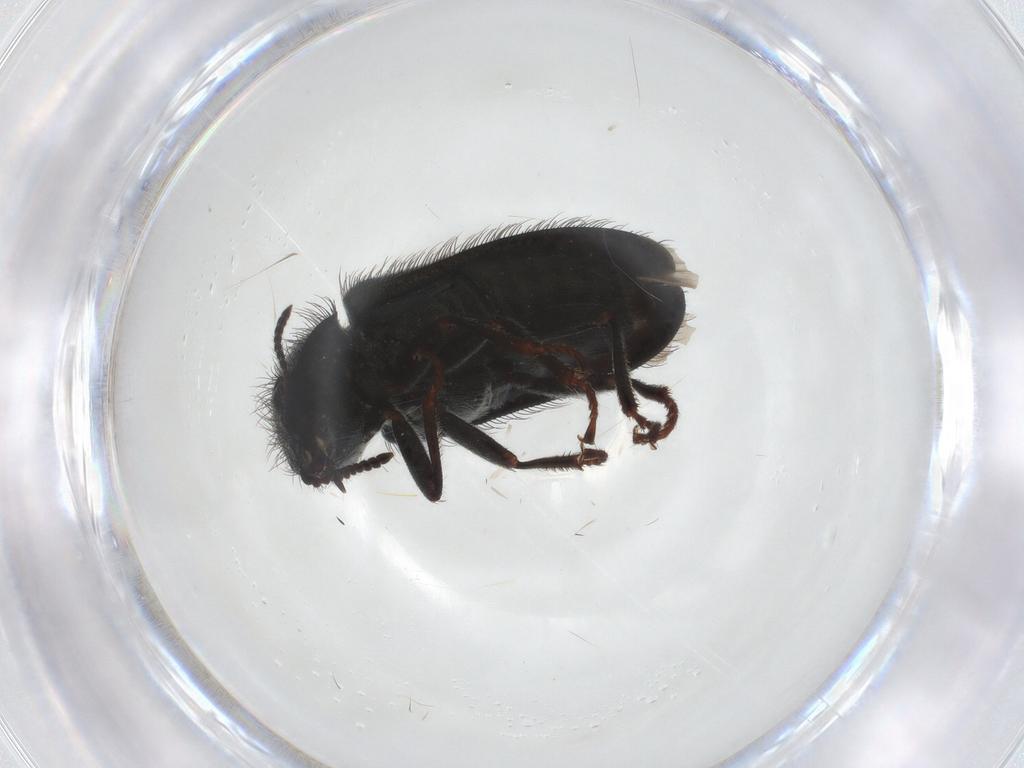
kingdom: Animalia
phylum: Arthropoda
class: Insecta
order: Coleoptera
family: Melyridae
